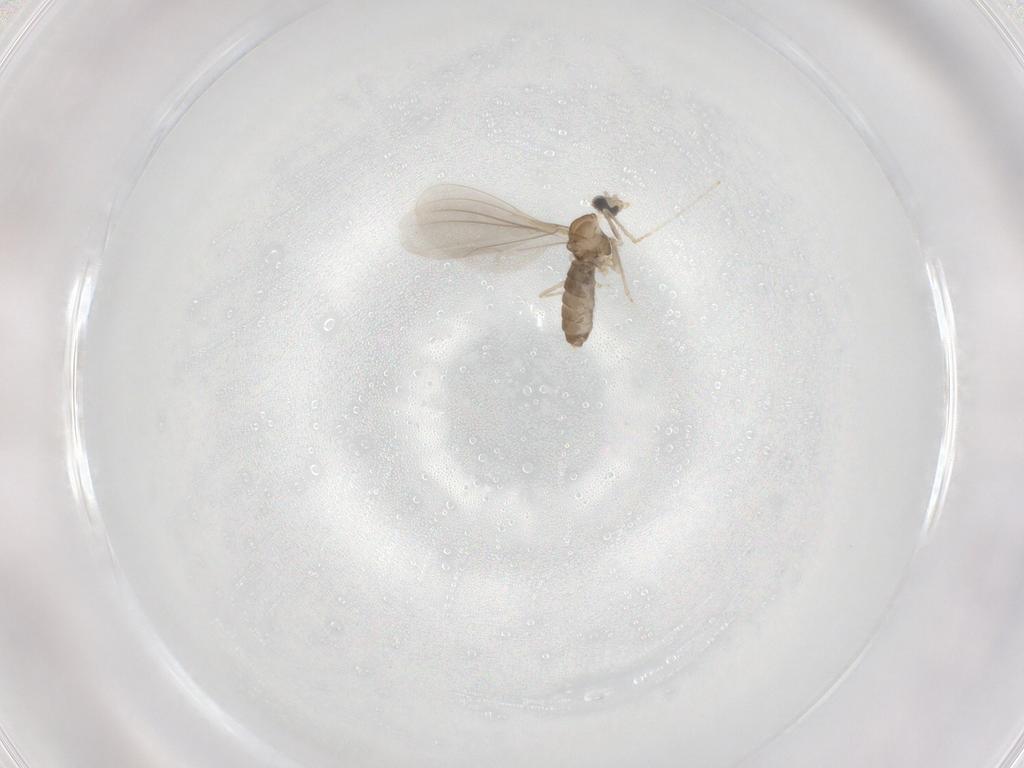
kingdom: Animalia
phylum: Arthropoda
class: Insecta
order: Diptera
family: Cecidomyiidae
